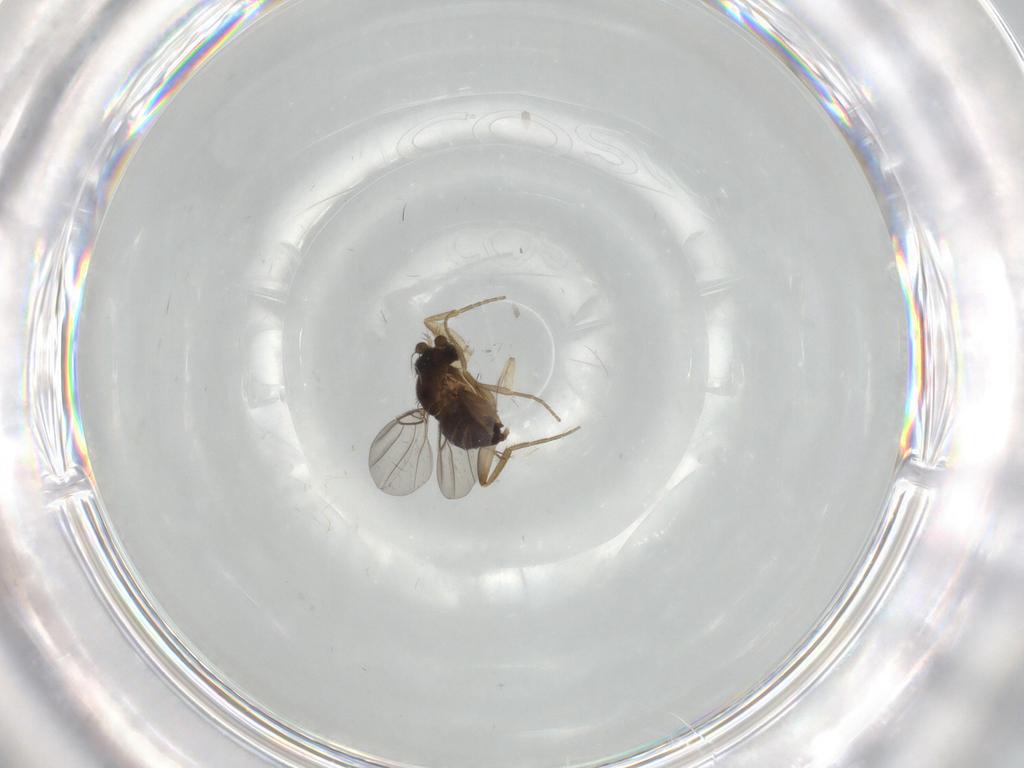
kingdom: Animalia
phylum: Arthropoda
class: Insecta
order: Diptera
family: Phoridae
